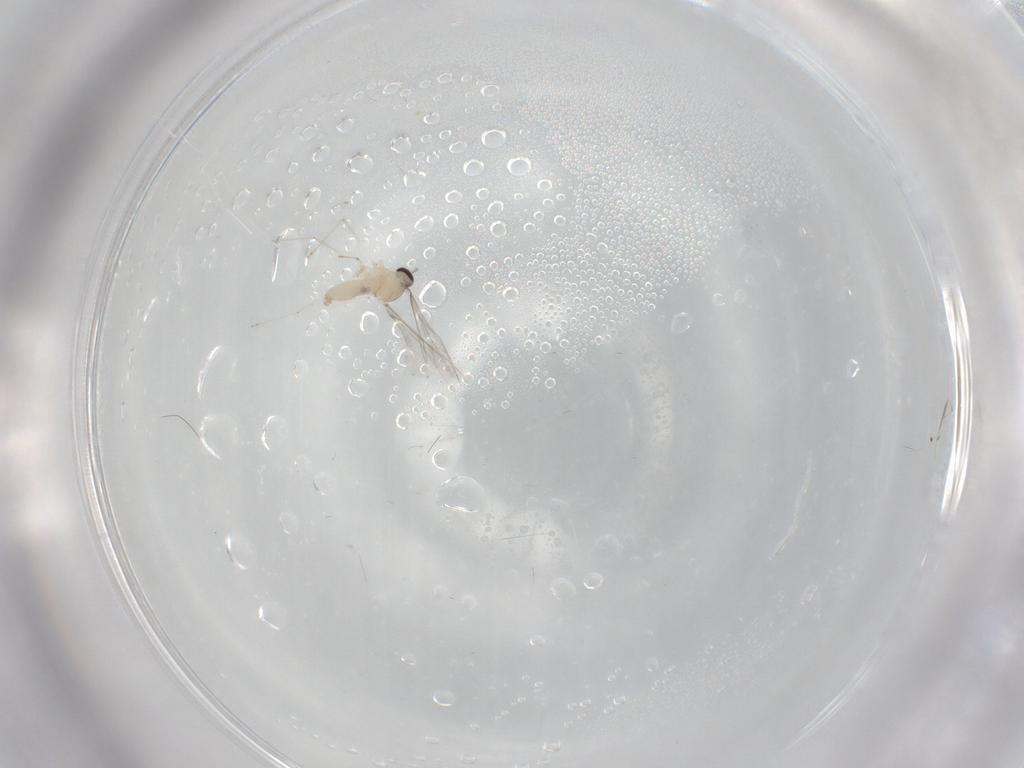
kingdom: Animalia
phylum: Arthropoda
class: Insecta
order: Diptera
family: Cecidomyiidae
